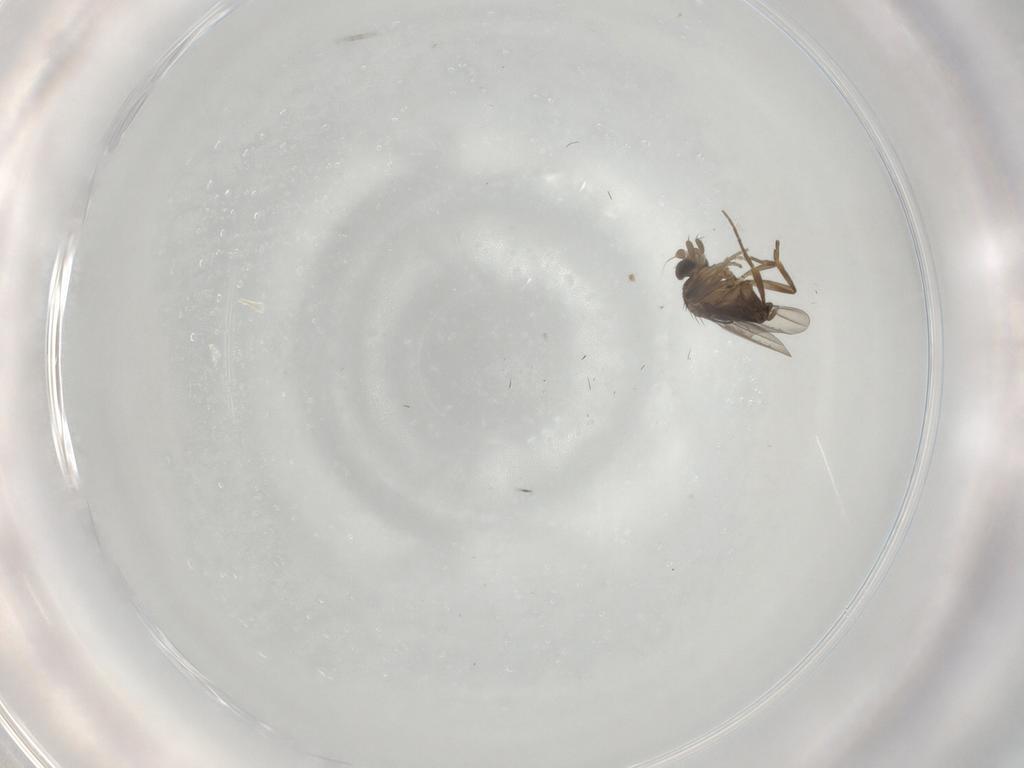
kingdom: Animalia
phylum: Arthropoda
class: Insecta
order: Diptera
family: Phoridae
